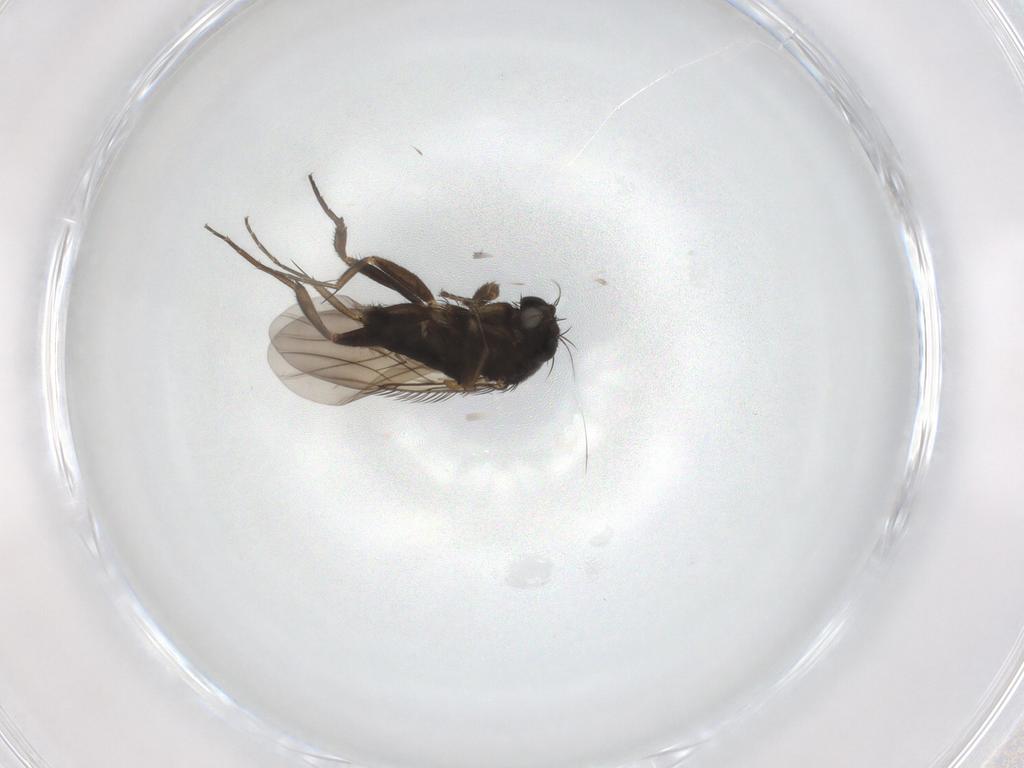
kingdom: Animalia
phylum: Arthropoda
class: Insecta
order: Diptera
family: Phoridae
